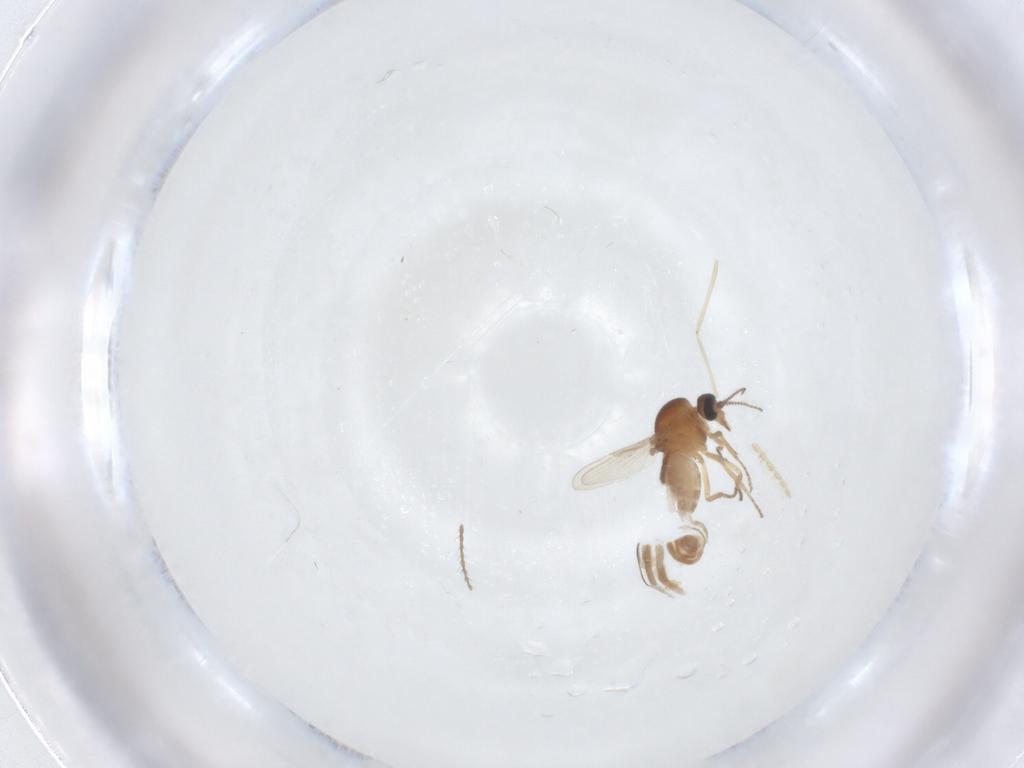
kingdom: Animalia
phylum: Arthropoda
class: Insecta
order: Diptera
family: Ceratopogonidae
